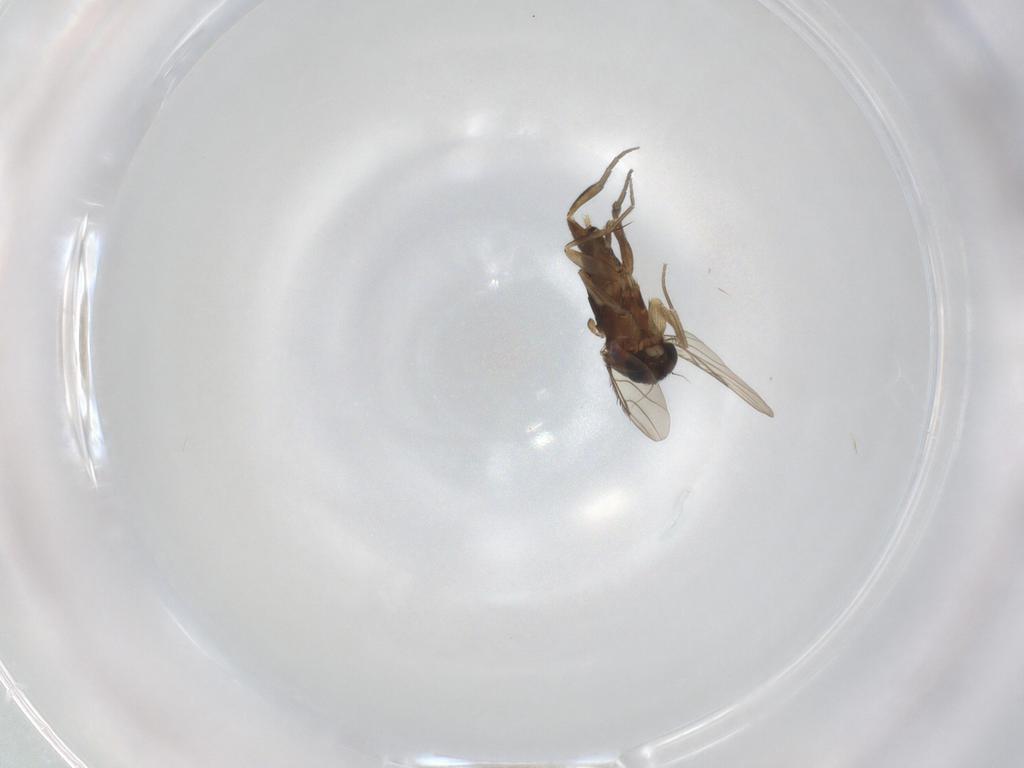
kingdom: Animalia
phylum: Arthropoda
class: Insecta
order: Diptera
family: Phoridae
